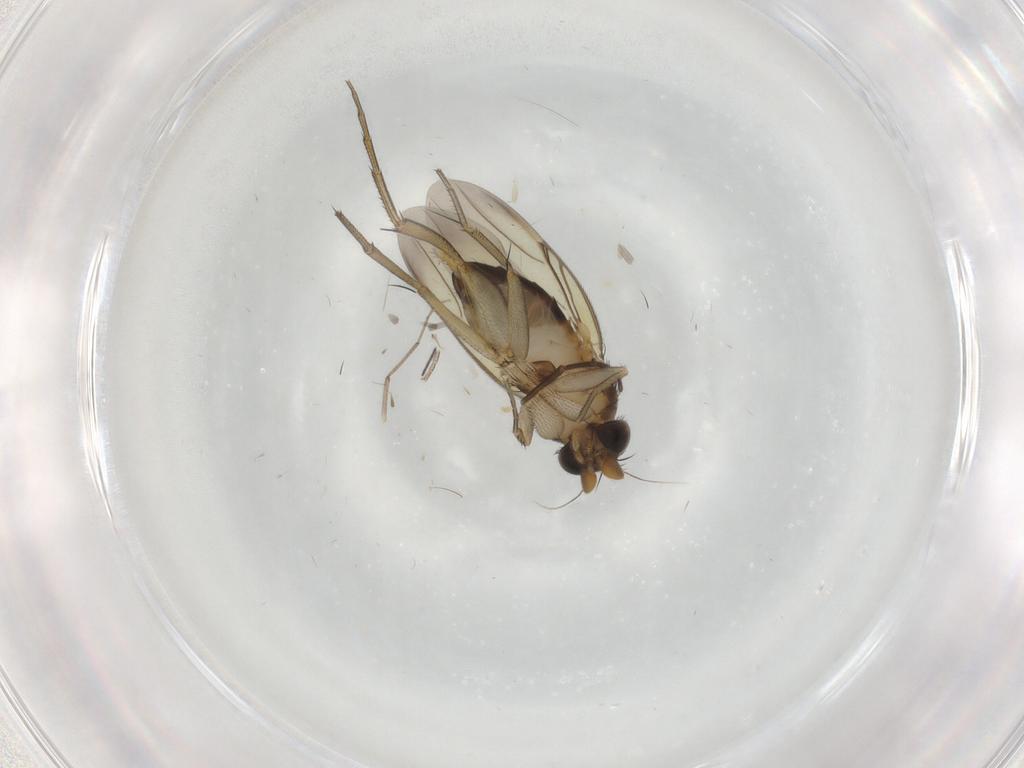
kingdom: Animalia
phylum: Arthropoda
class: Insecta
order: Diptera
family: Phoridae
